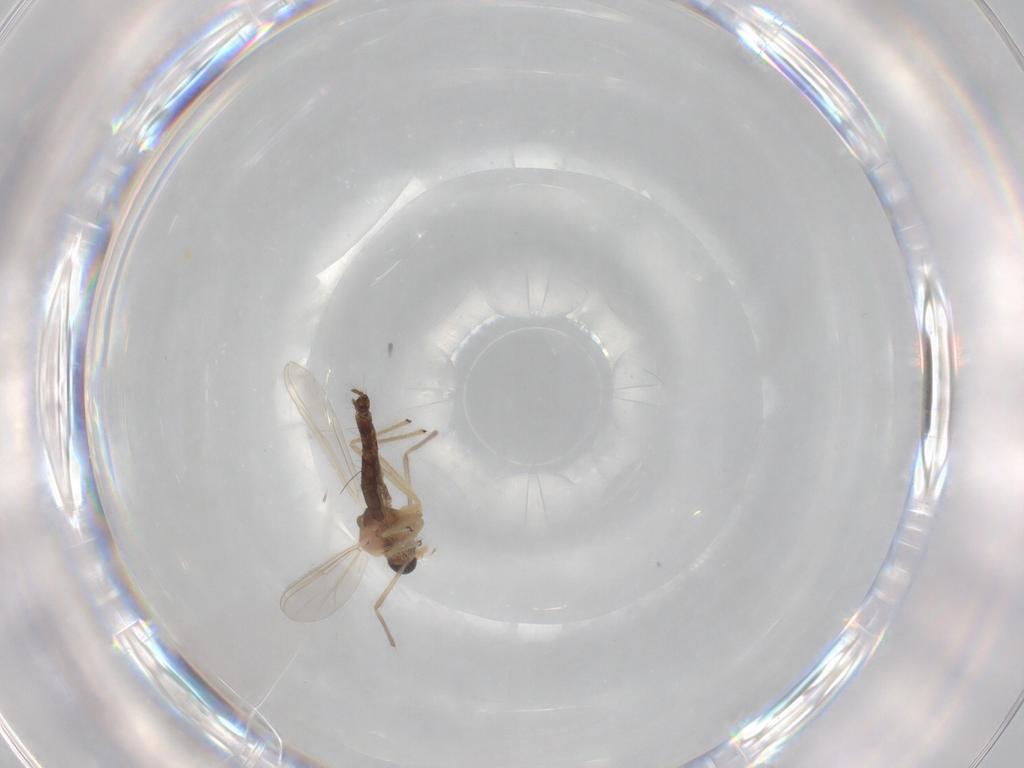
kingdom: Animalia
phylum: Arthropoda
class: Insecta
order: Diptera
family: Chironomidae
